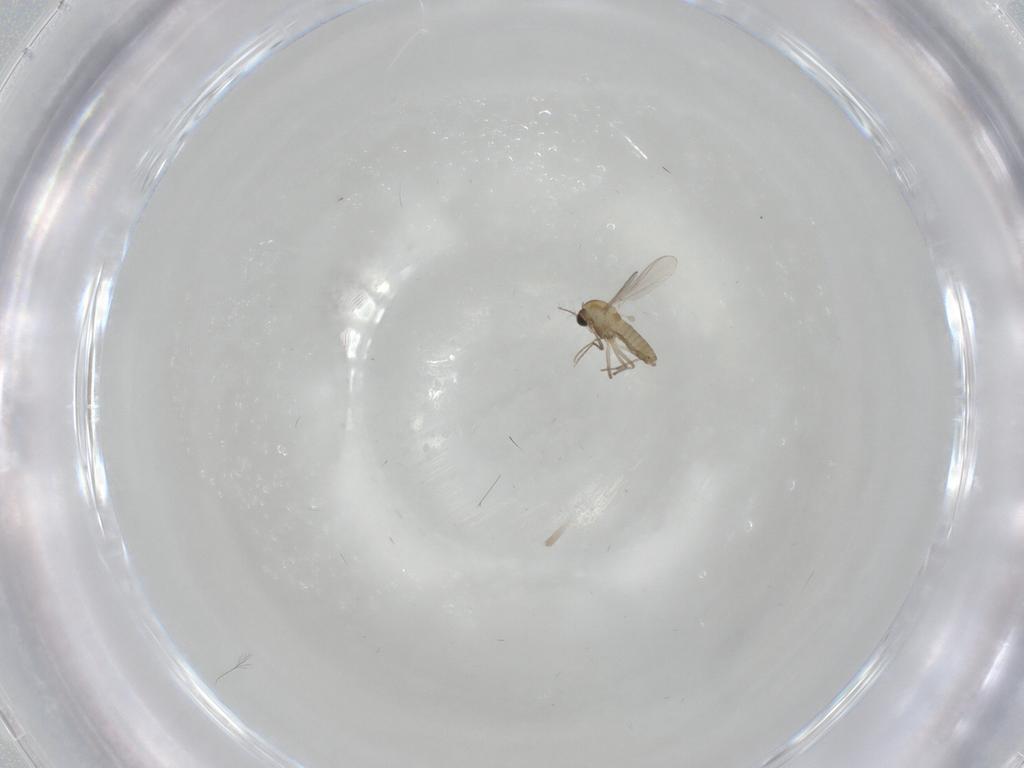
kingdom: Animalia
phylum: Arthropoda
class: Insecta
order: Diptera
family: Chironomidae
